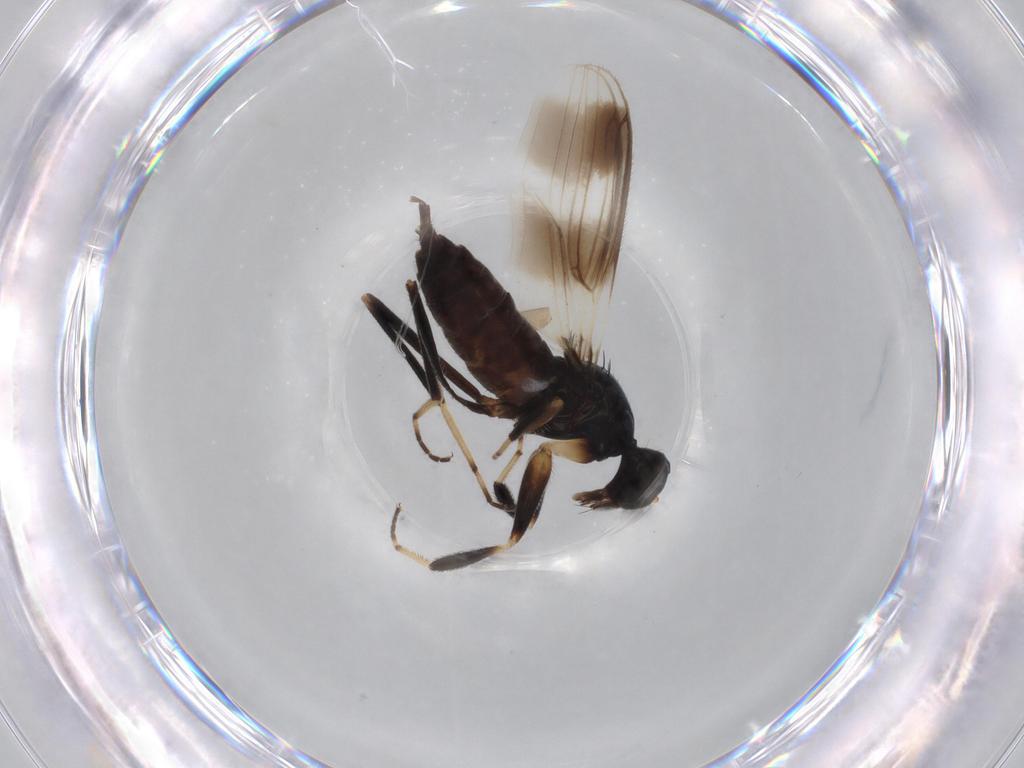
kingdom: Animalia
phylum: Arthropoda
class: Insecta
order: Diptera
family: Hybotidae
